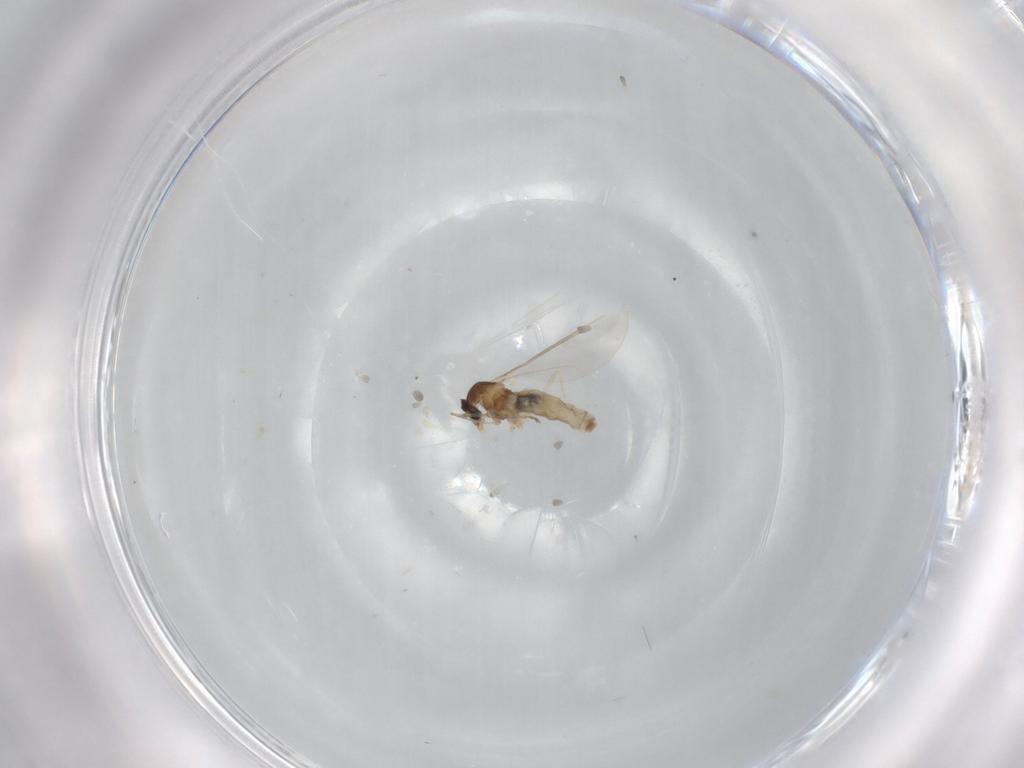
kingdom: Animalia
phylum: Arthropoda
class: Insecta
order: Diptera
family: Cecidomyiidae
